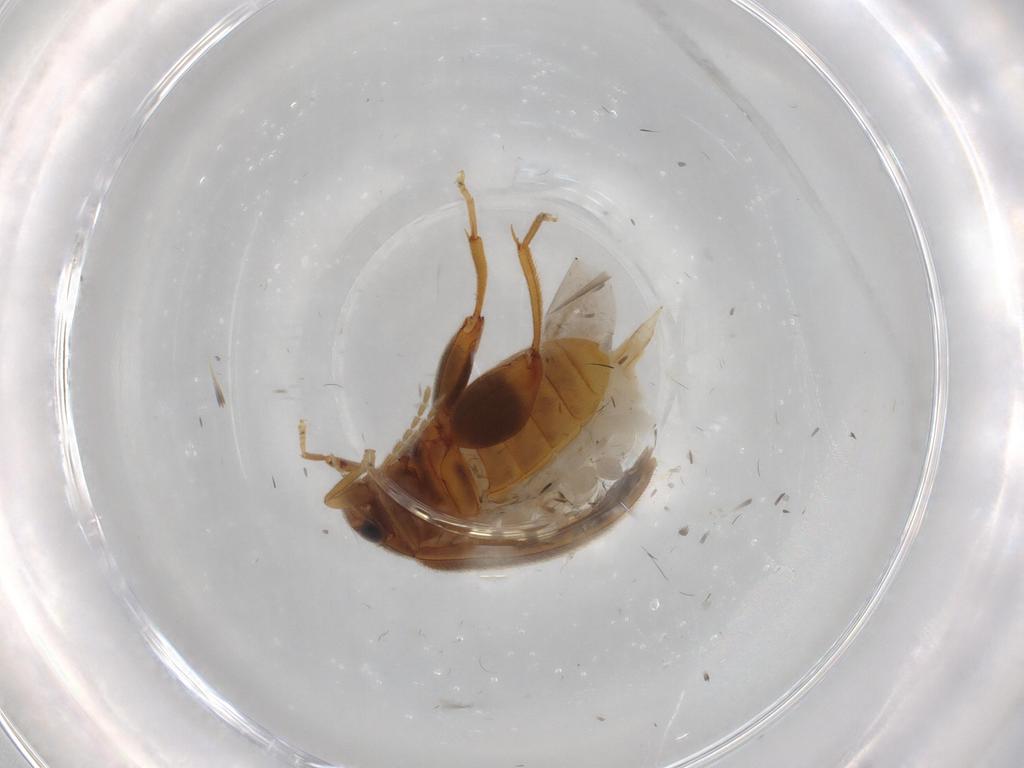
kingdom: Animalia
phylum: Arthropoda
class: Insecta
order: Coleoptera
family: Scirtidae
